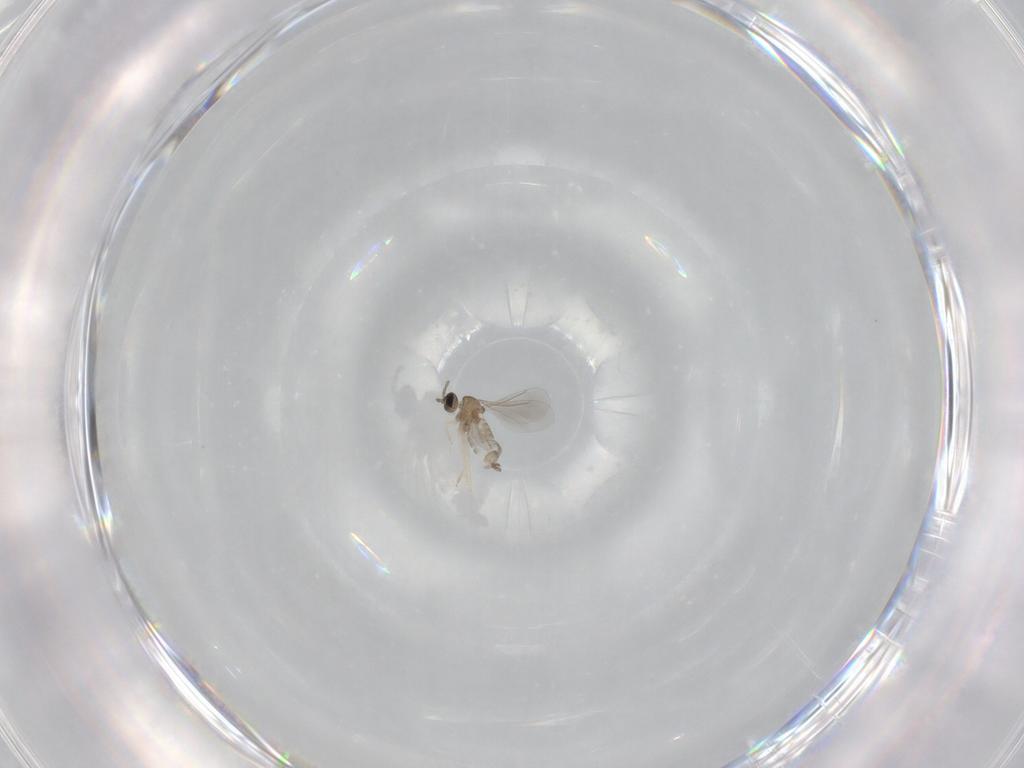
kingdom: Animalia
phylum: Arthropoda
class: Insecta
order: Diptera
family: Cecidomyiidae
